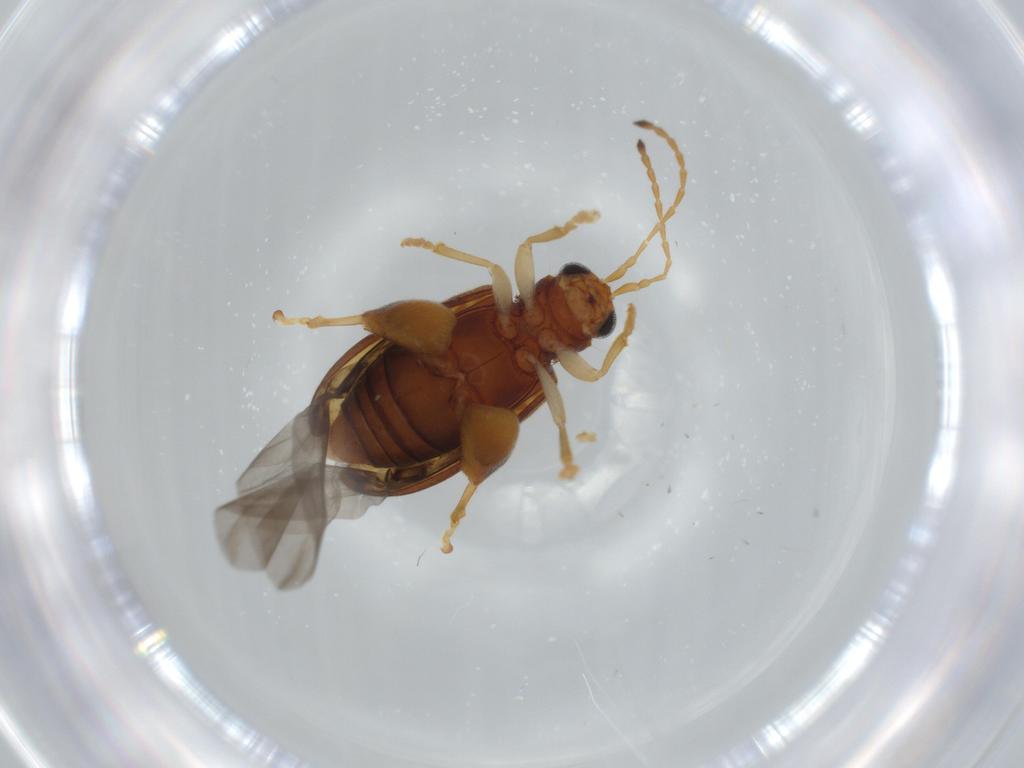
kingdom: Animalia
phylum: Arthropoda
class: Insecta
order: Coleoptera
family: Chrysomelidae
